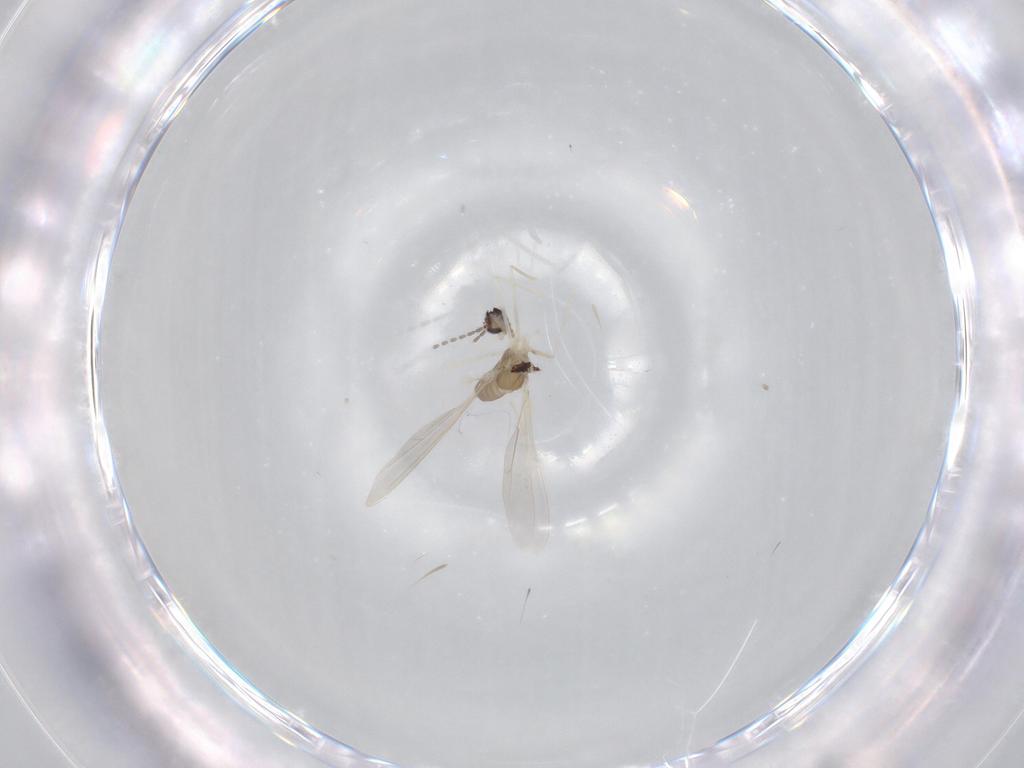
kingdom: Animalia
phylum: Arthropoda
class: Insecta
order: Diptera
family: Cecidomyiidae
